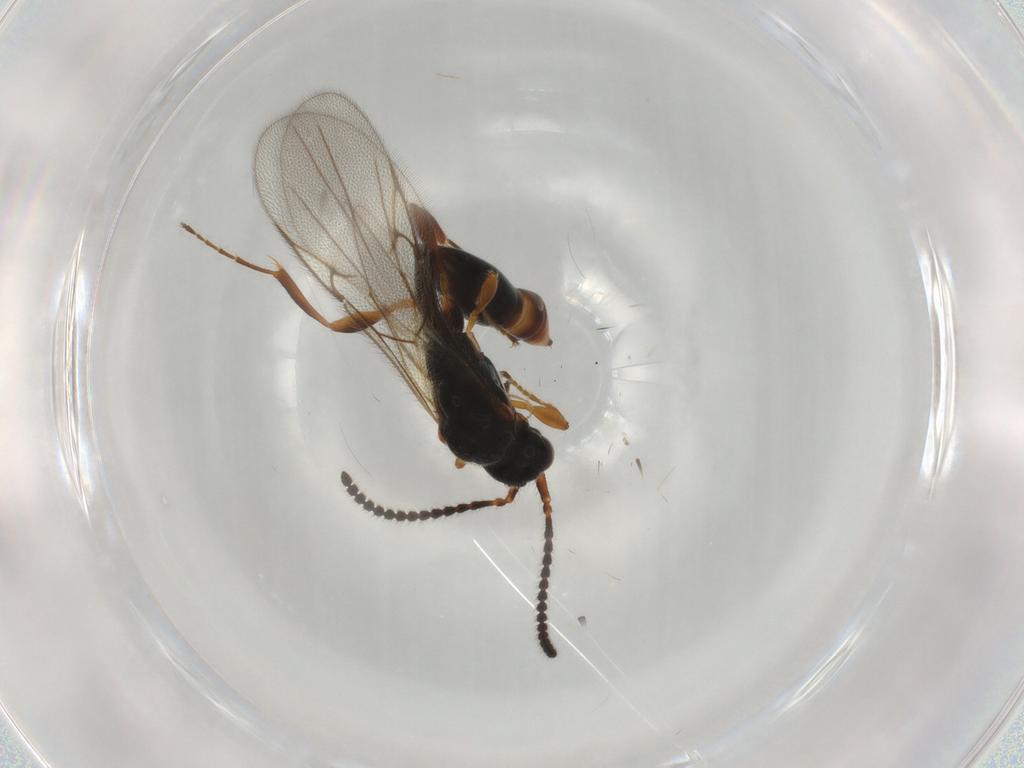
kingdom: Animalia
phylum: Arthropoda
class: Insecta
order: Hymenoptera
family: Diapriidae
